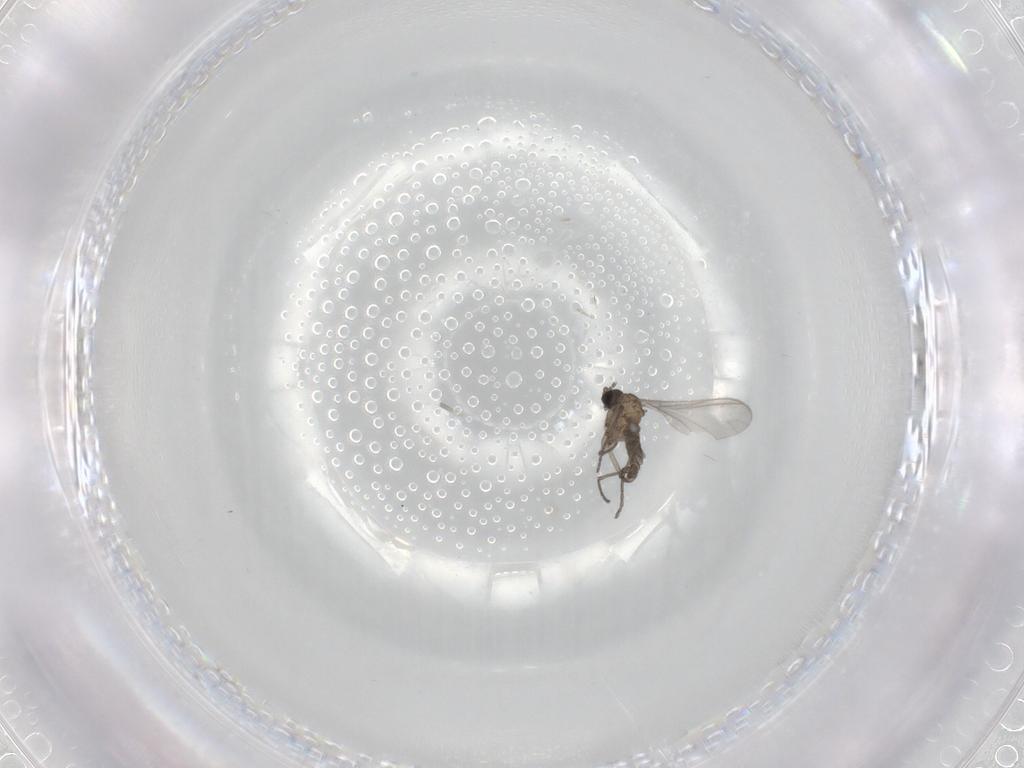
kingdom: Animalia
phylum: Arthropoda
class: Insecta
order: Diptera
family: Sciaridae
